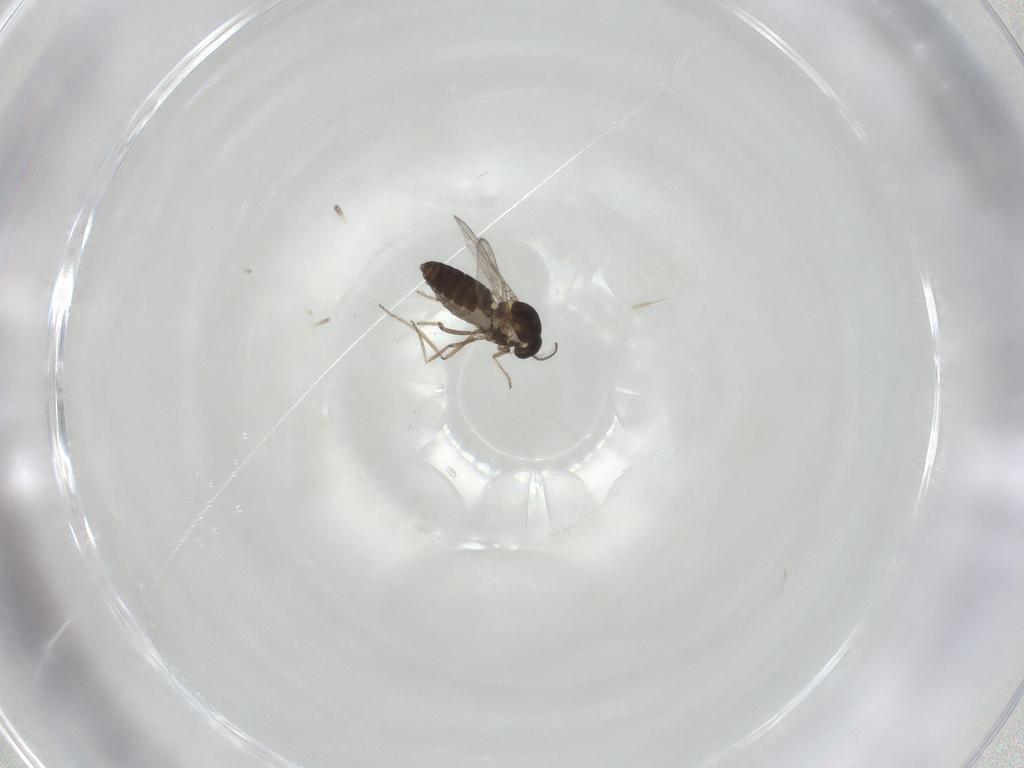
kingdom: Animalia
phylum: Arthropoda
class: Insecta
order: Diptera
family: Ceratopogonidae
